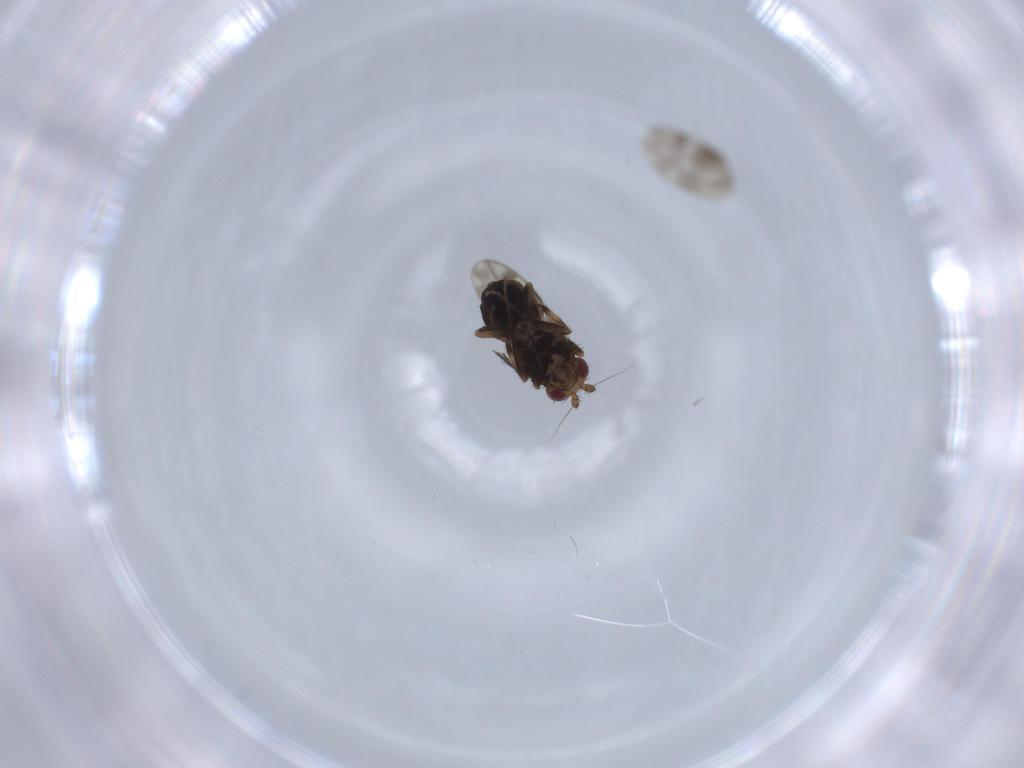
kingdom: Animalia
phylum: Arthropoda
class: Insecta
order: Diptera
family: Sphaeroceridae
